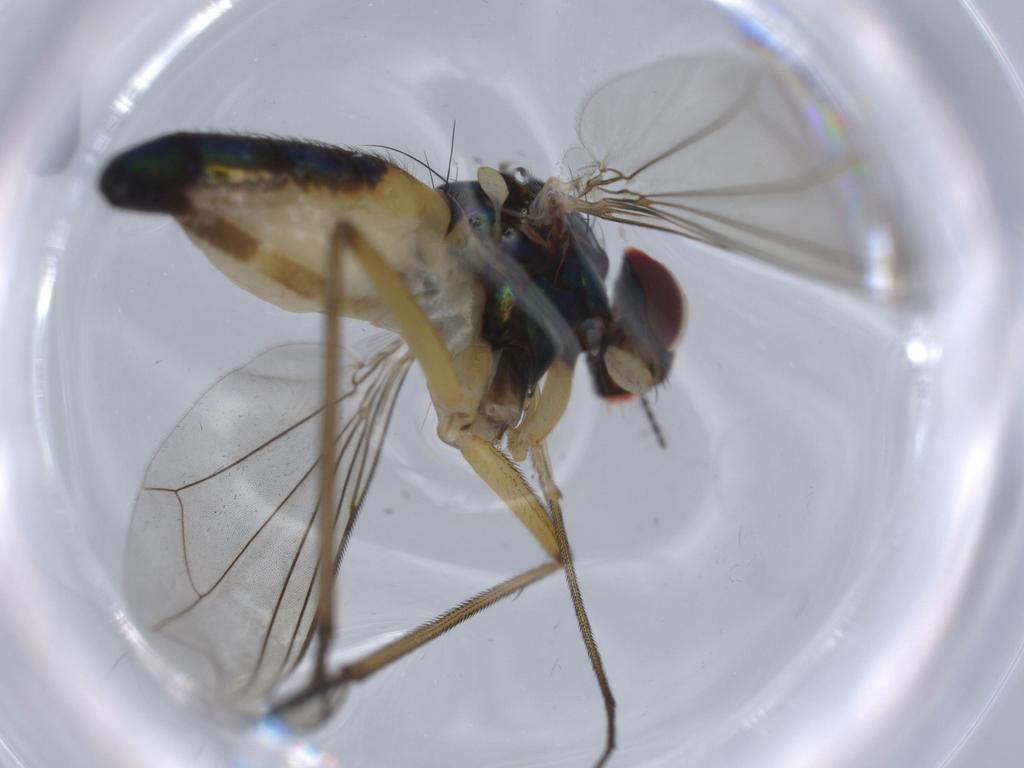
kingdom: Animalia
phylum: Arthropoda
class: Insecta
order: Diptera
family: Dolichopodidae
